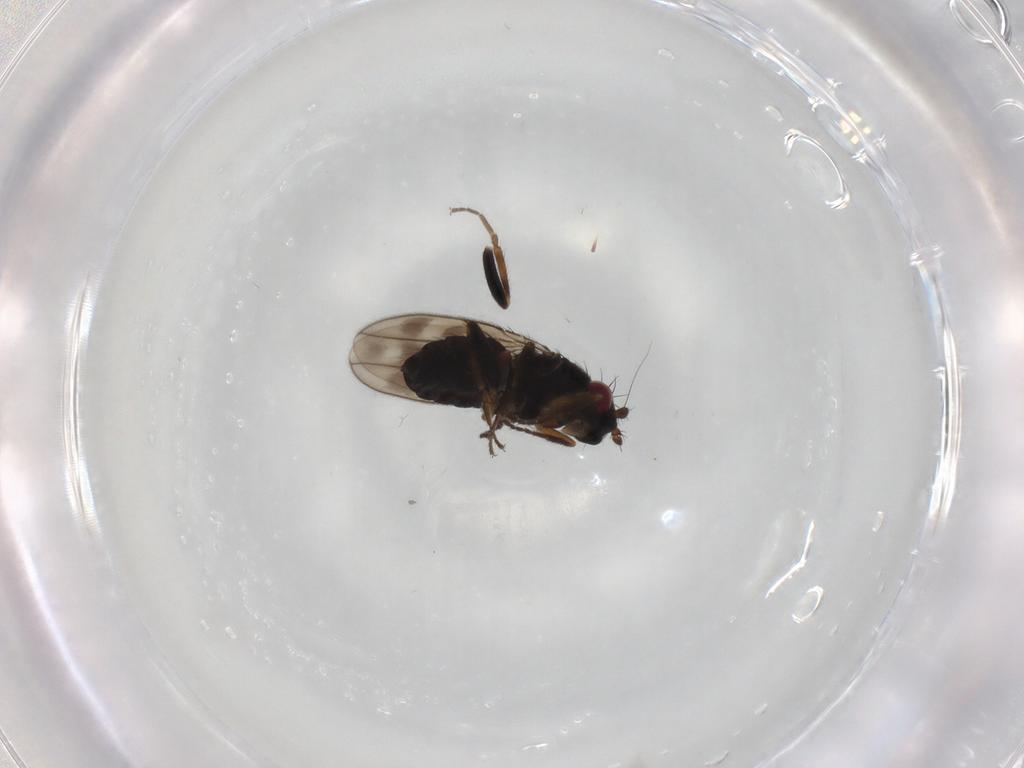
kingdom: Animalia
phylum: Arthropoda
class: Insecta
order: Diptera
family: Sphaeroceridae
